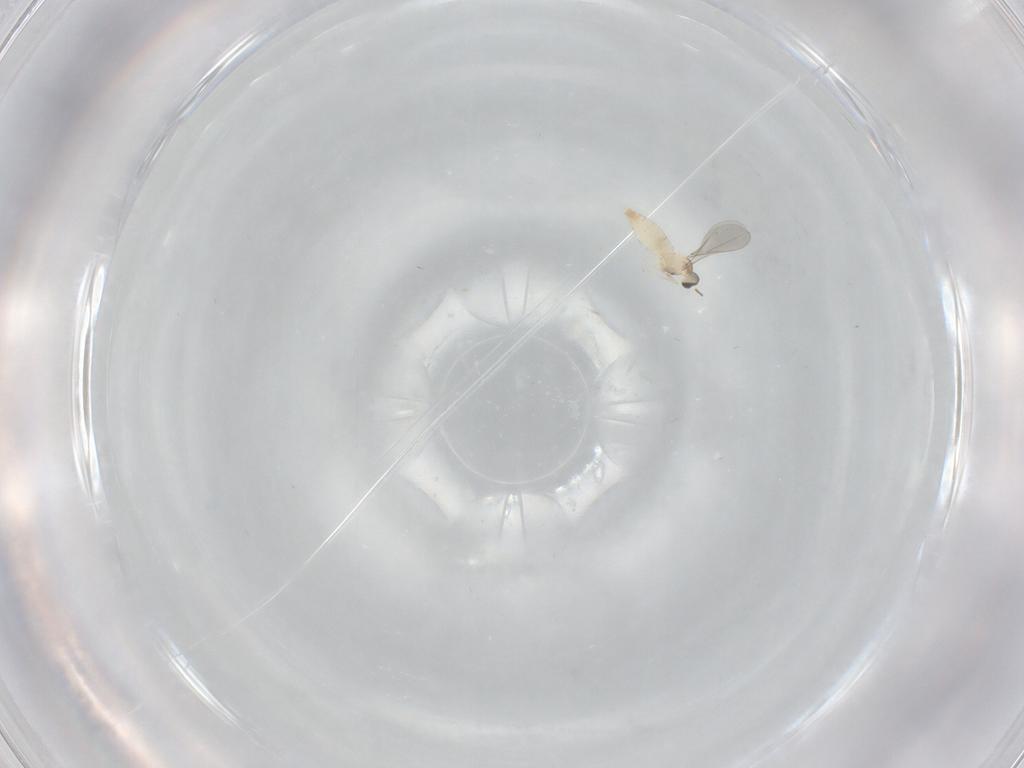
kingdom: Animalia
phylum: Arthropoda
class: Insecta
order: Diptera
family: Cecidomyiidae
